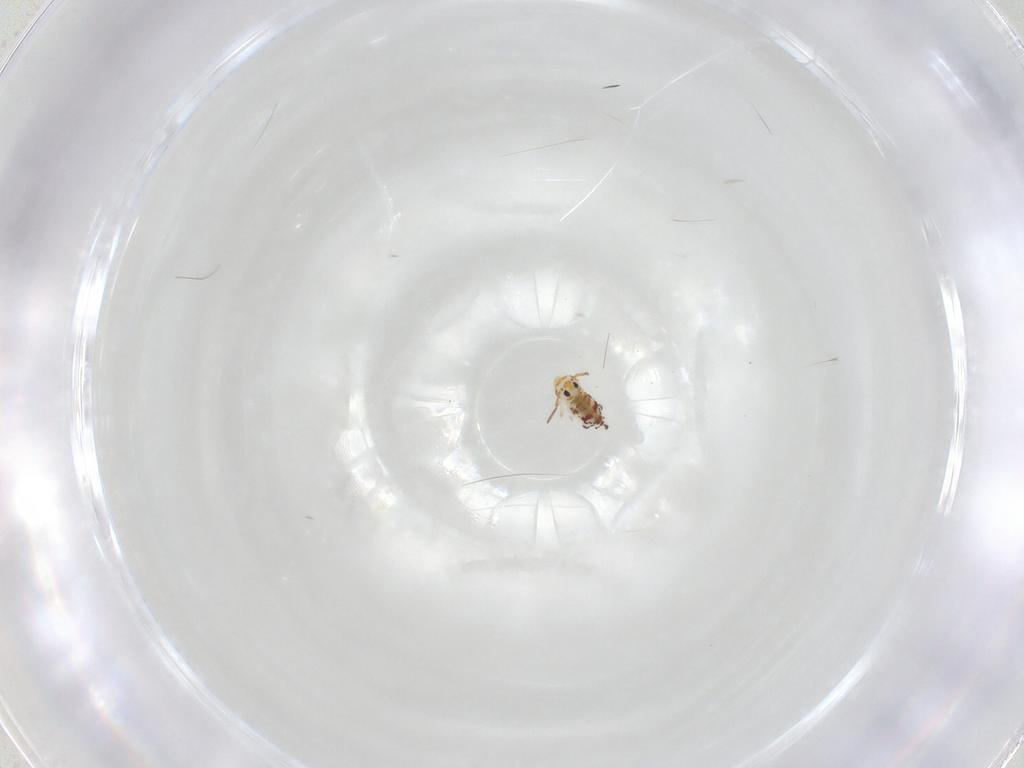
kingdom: Animalia
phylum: Arthropoda
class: Collembola
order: Symphypleona
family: Bourletiellidae
